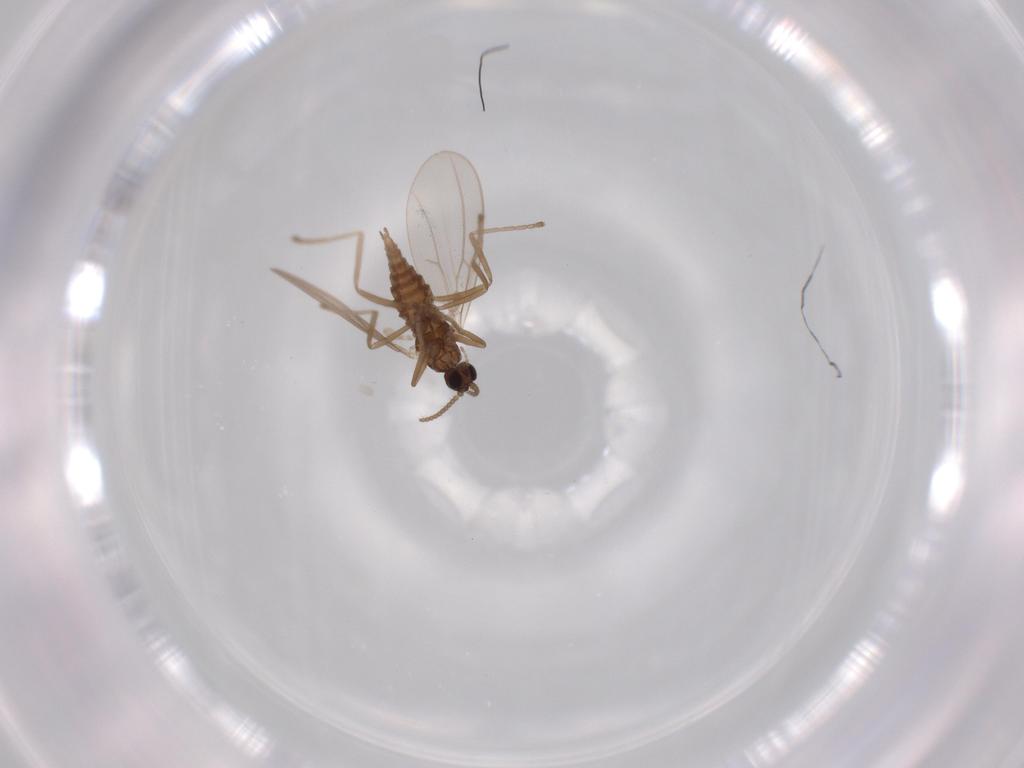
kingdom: Animalia
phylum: Arthropoda
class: Insecta
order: Diptera
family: Cecidomyiidae
